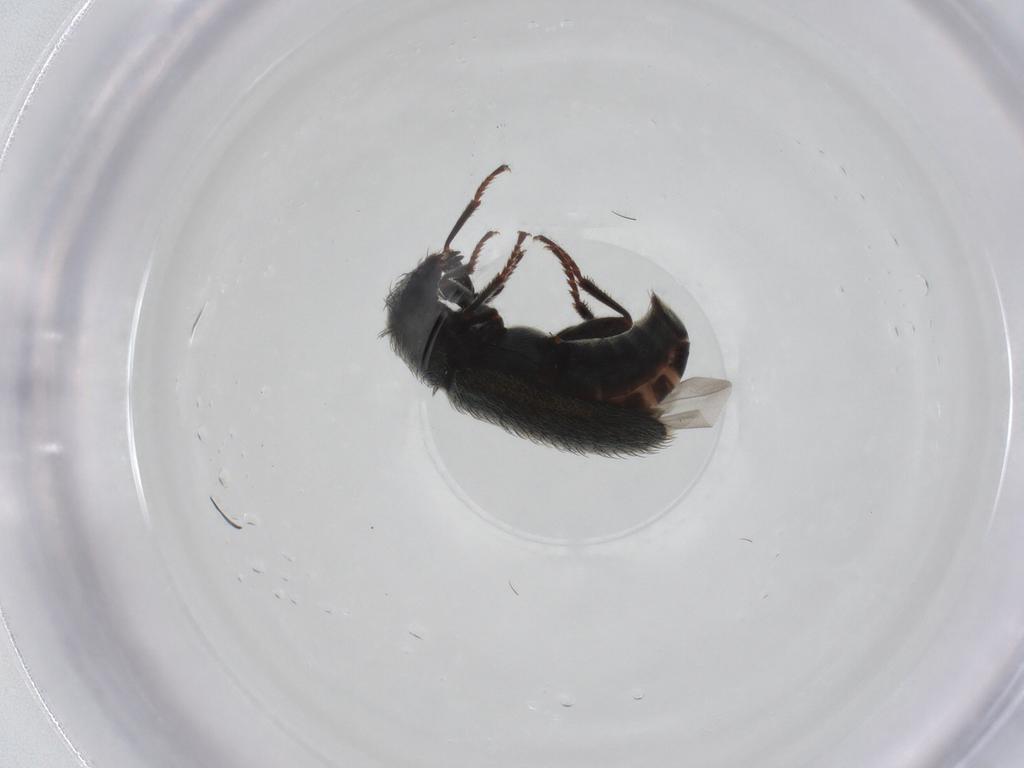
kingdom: Animalia
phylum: Arthropoda
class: Insecta
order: Coleoptera
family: Melyridae
